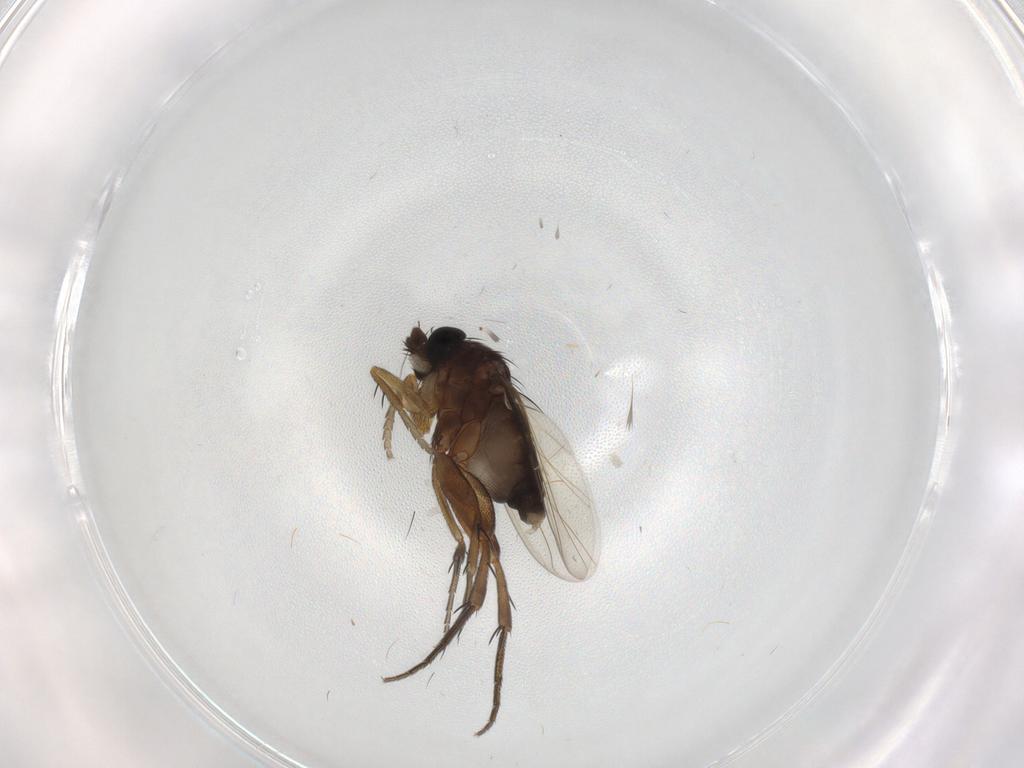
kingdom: Animalia
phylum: Arthropoda
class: Insecta
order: Diptera
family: Phoridae
